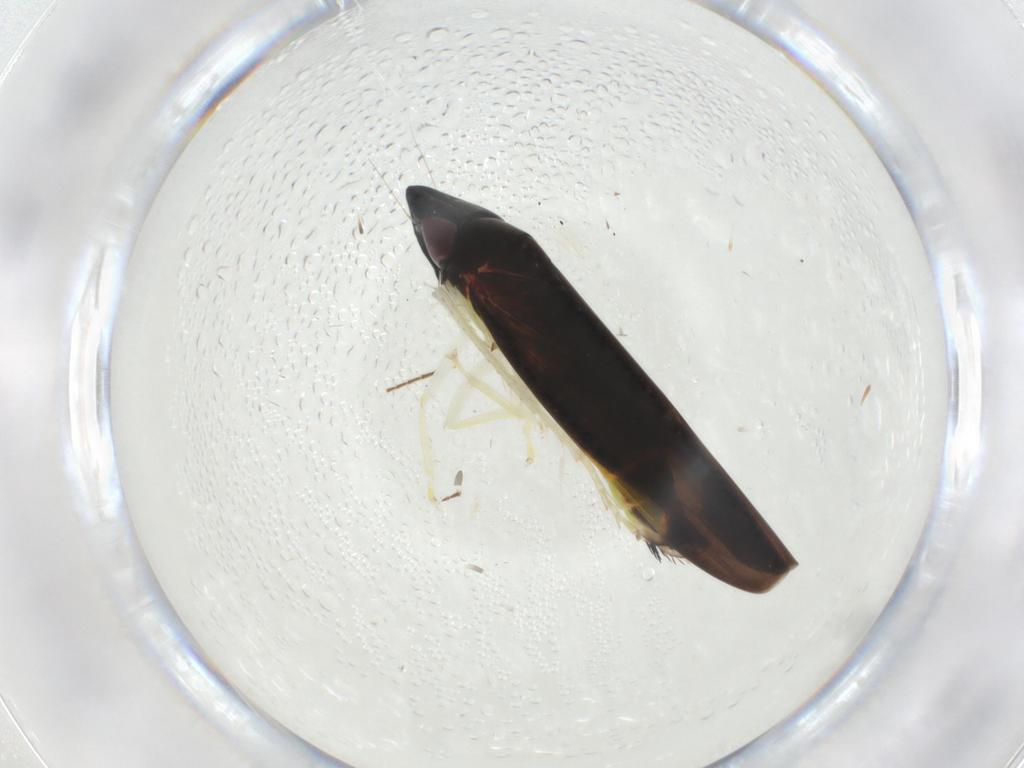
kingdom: Animalia
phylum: Arthropoda
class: Insecta
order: Hemiptera
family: Cicadellidae
